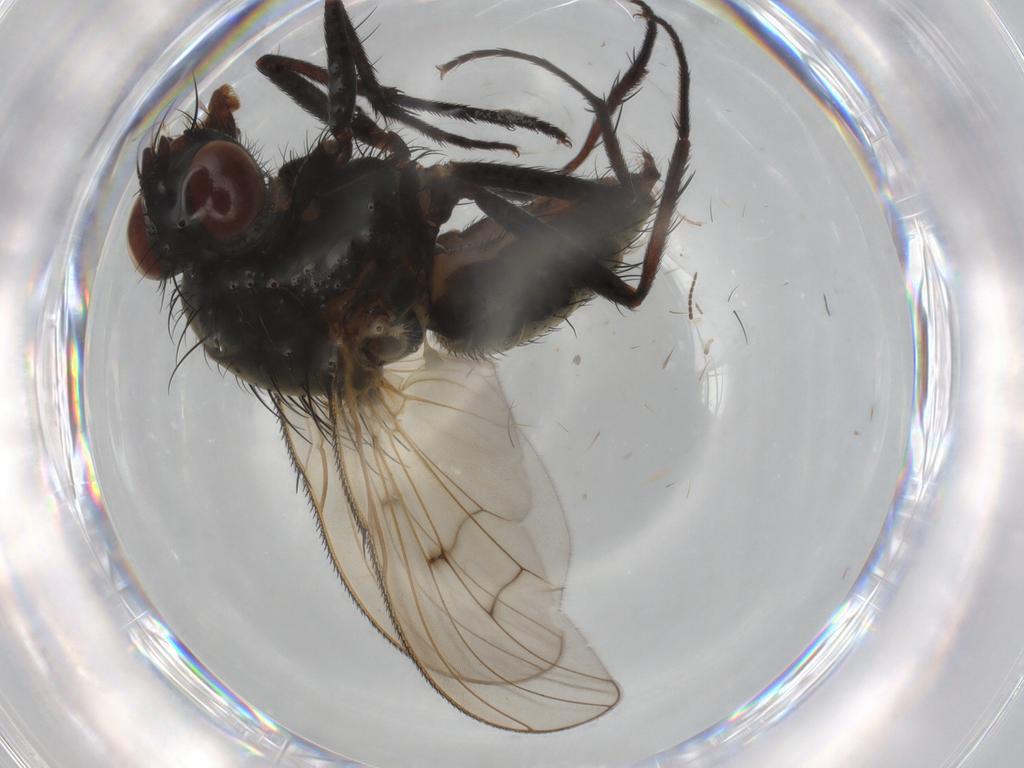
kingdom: Animalia
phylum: Arthropoda
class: Insecta
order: Diptera
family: Anthomyiidae
